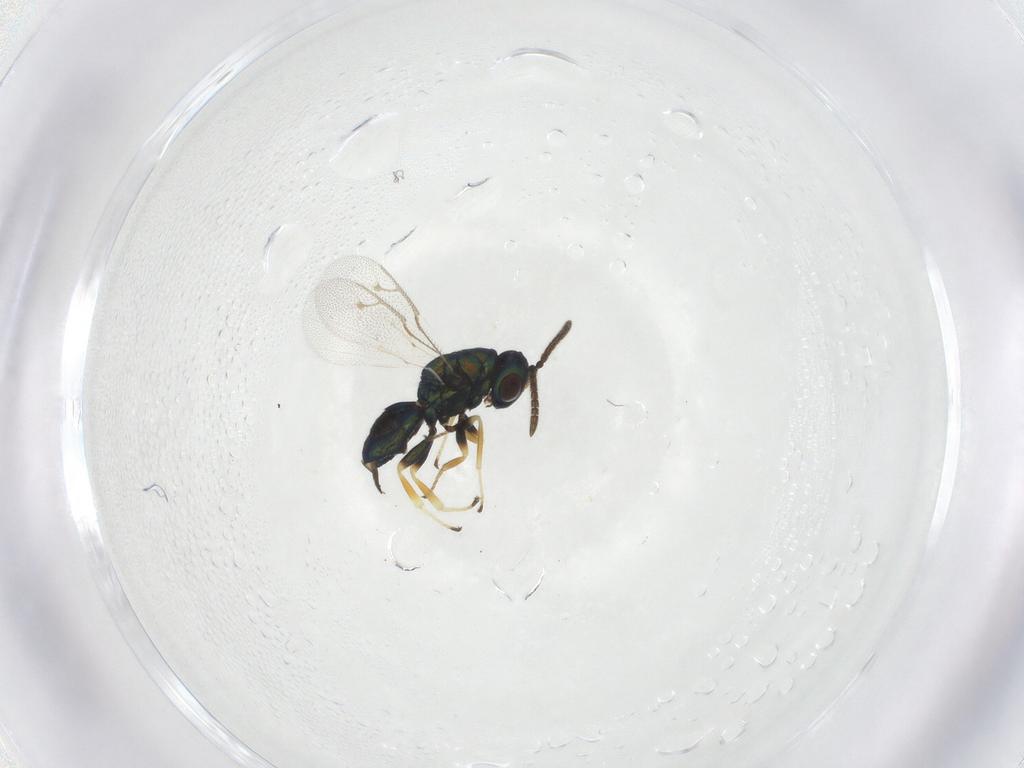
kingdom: Animalia
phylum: Arthropoda
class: Insecta
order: Hymenoptera
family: Pteromalidae
